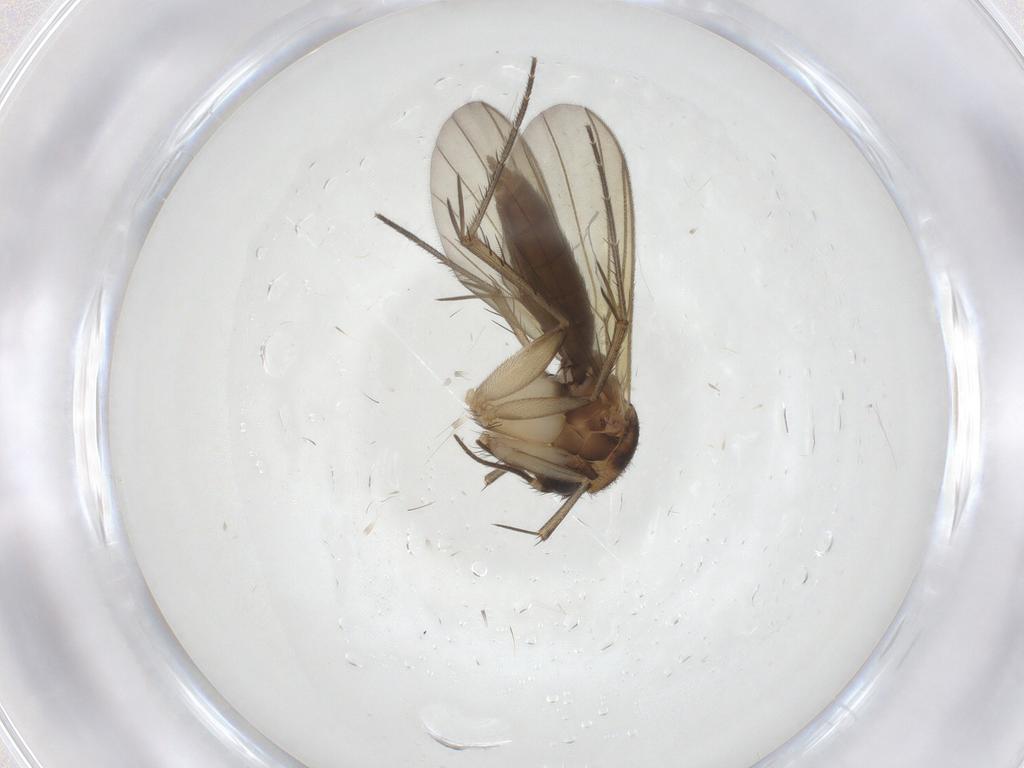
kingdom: Animalia
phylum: Arthropoda
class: Insecta
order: Diptera
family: Mycetophilidae
